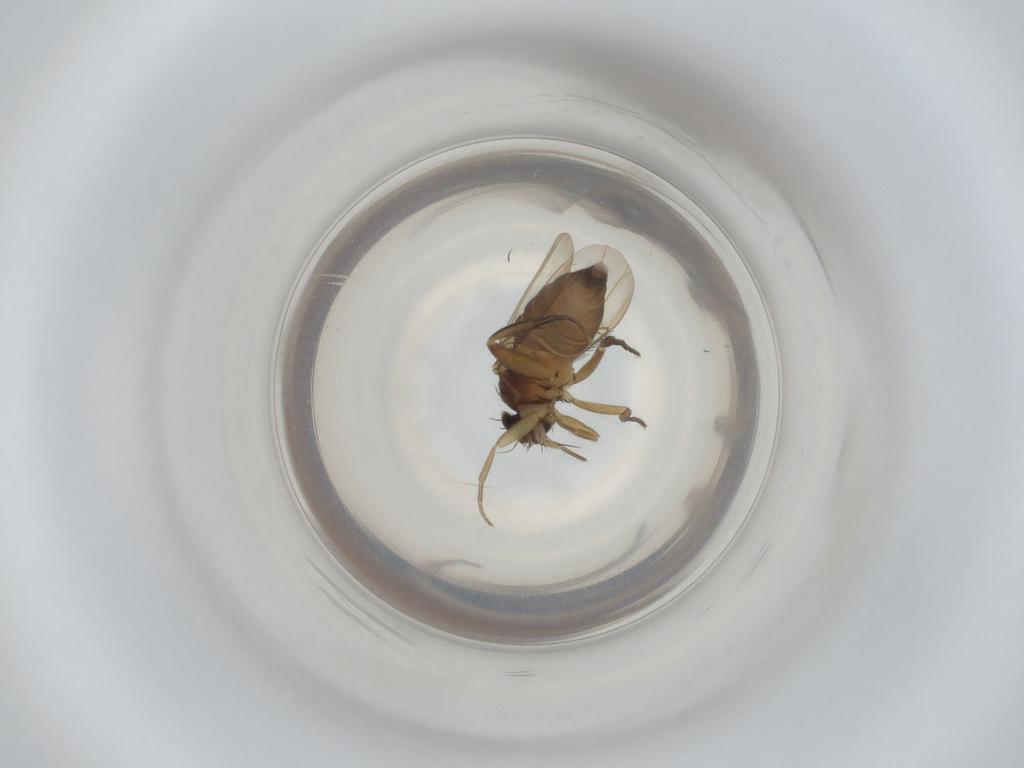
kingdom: Animalia
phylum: Arthropoda
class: Insecta
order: Diptera
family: Phoridae
